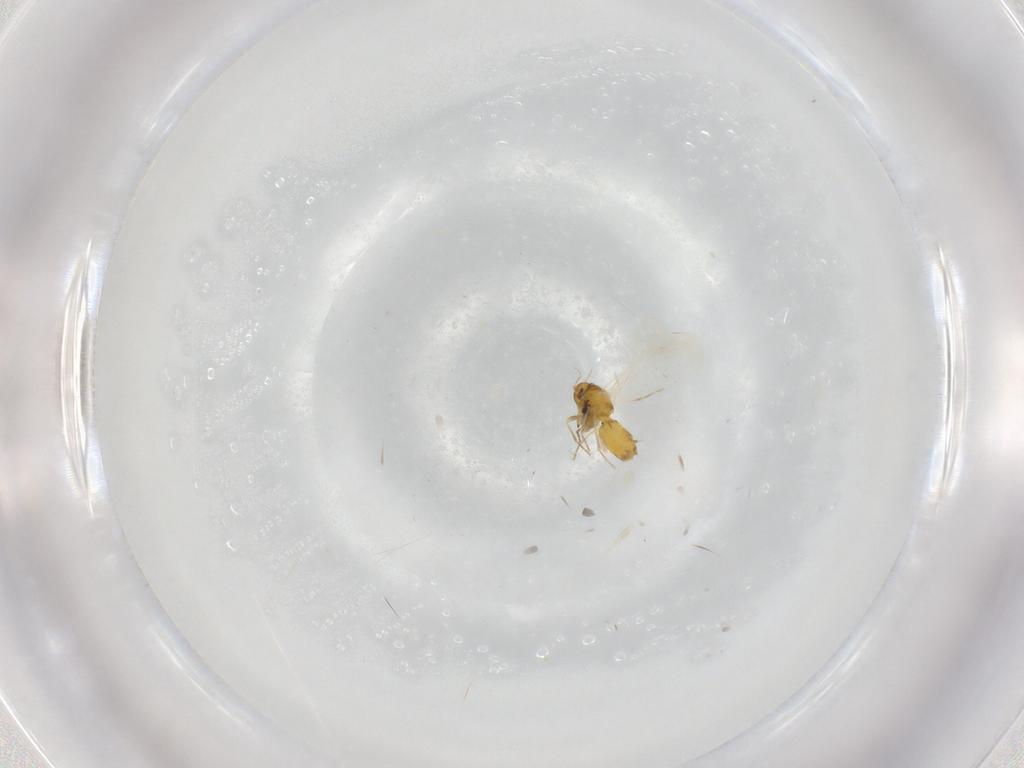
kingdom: Animalia
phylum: Arthropoda
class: Insecta
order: Hemiptera
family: Aleyrodidae
